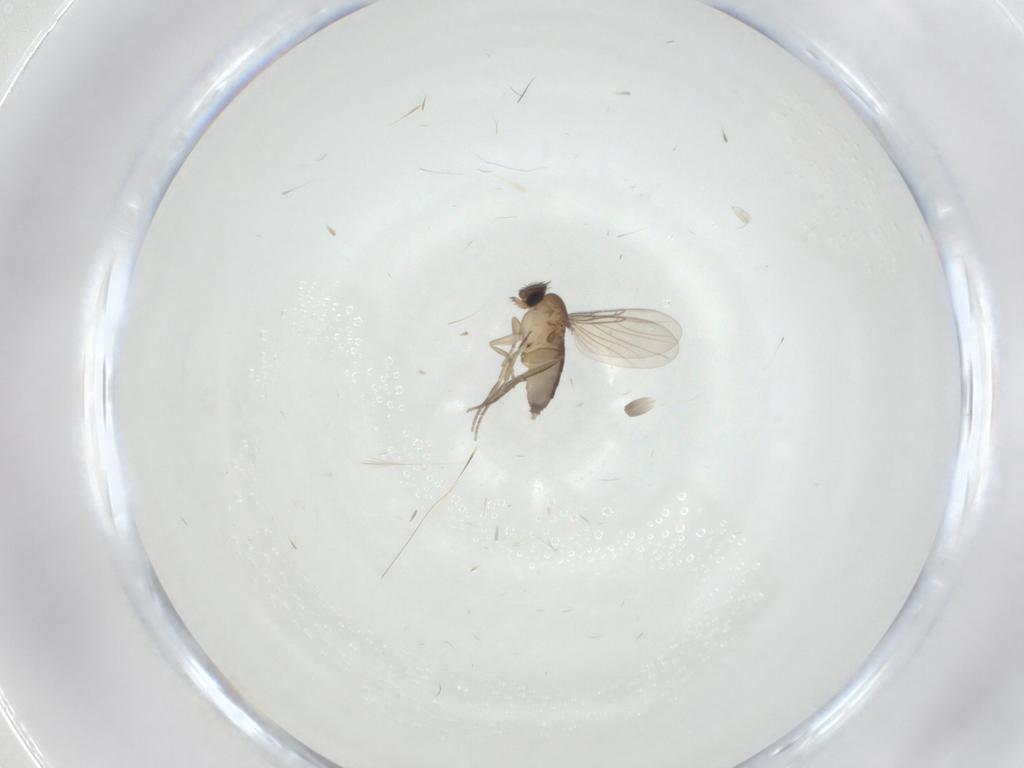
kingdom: Animalia
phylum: Arthropoda
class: Insecta
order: Diptera
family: Phoridae
